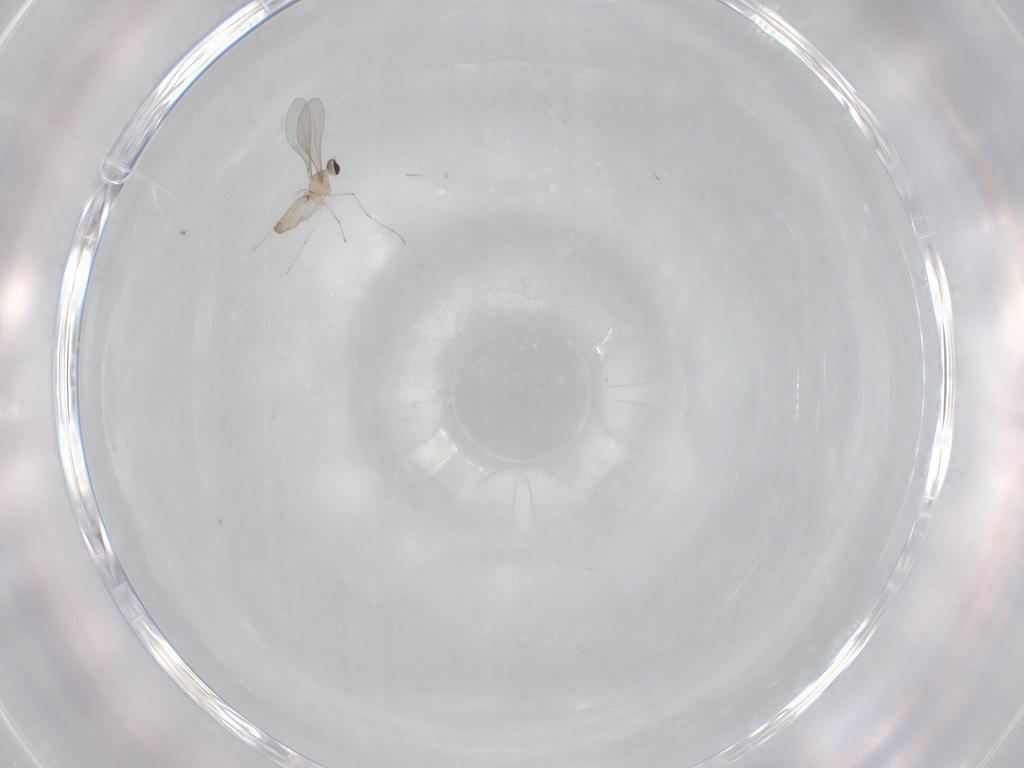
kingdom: Animalia
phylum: Arthropoda
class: Insecta
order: Diptera
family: Cecidomyiidae
